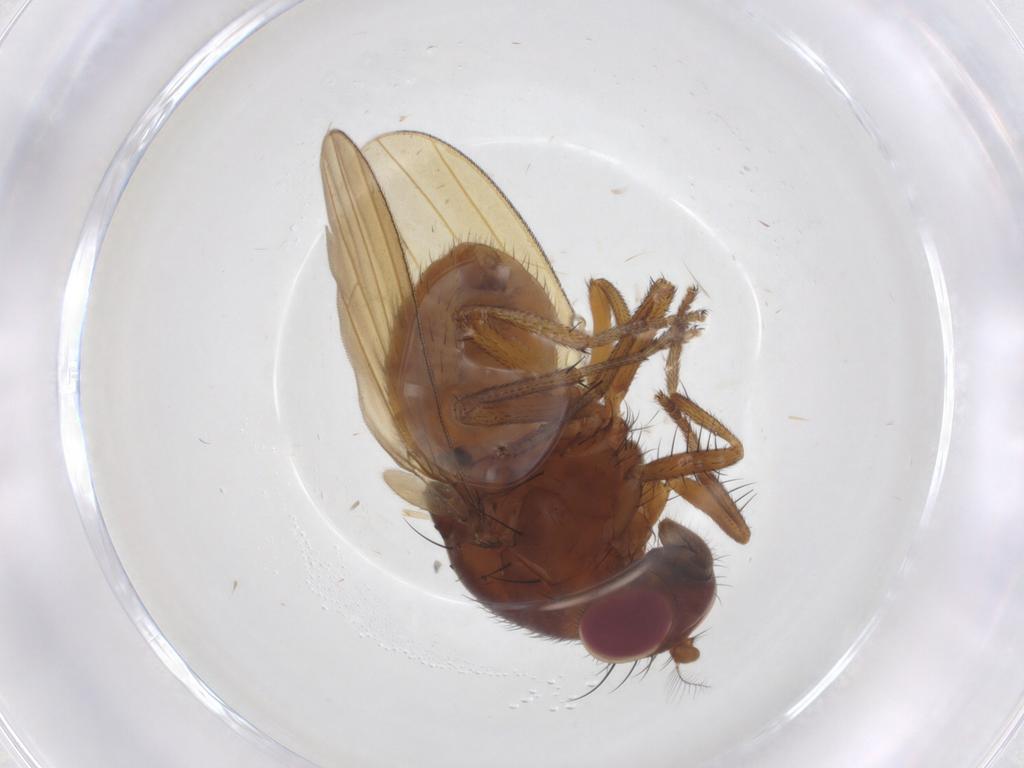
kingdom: Animalia
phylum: Arthropoda
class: Insecta
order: Diptera
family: Lauxaniidae
